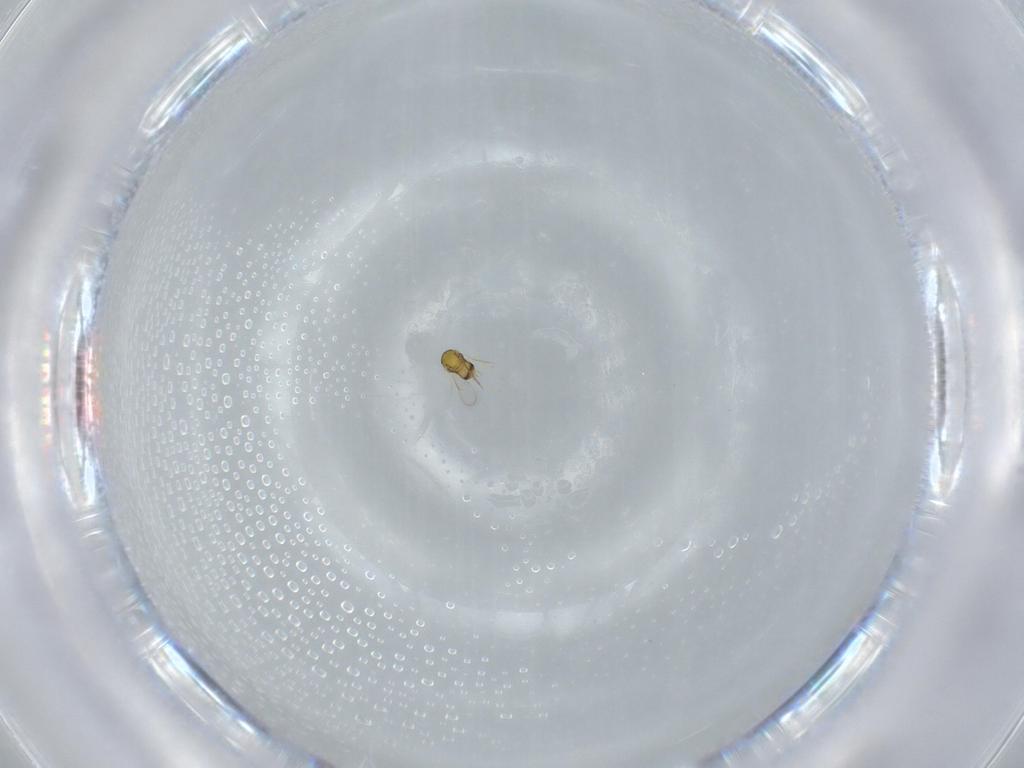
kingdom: Animalia
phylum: Arthropoda
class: Insecta
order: Hymenoptera
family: Aphelinidae
